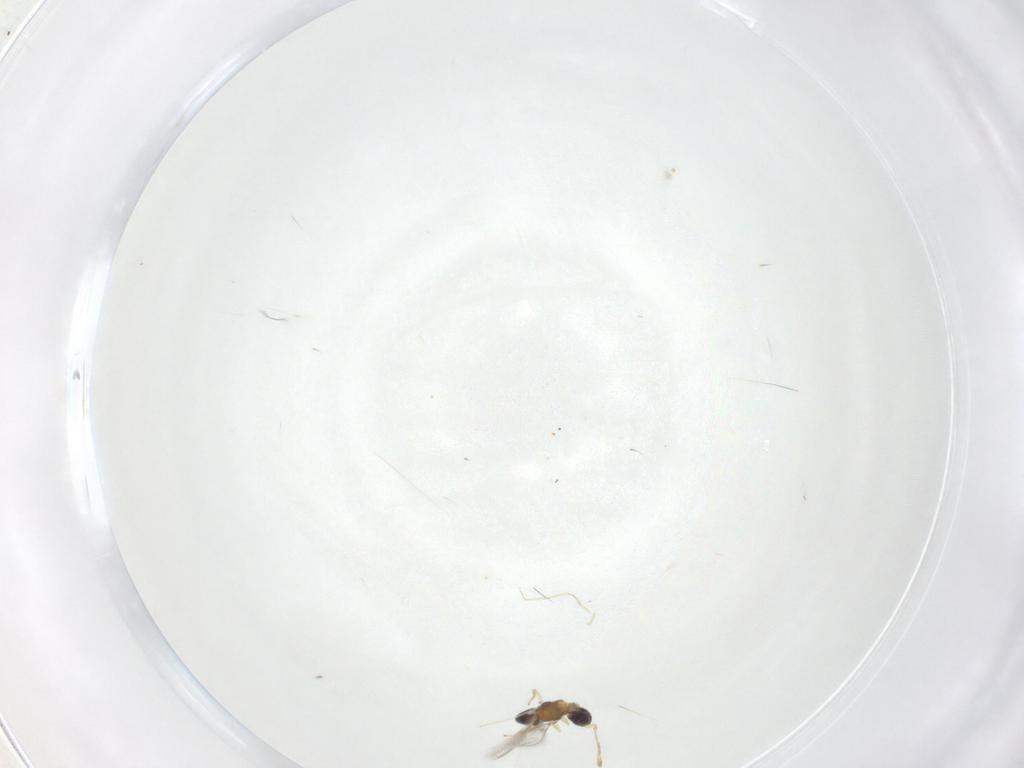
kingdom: Animalia
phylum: Arthropoda
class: Insecta
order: Hymenoptera
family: Mymaridae
